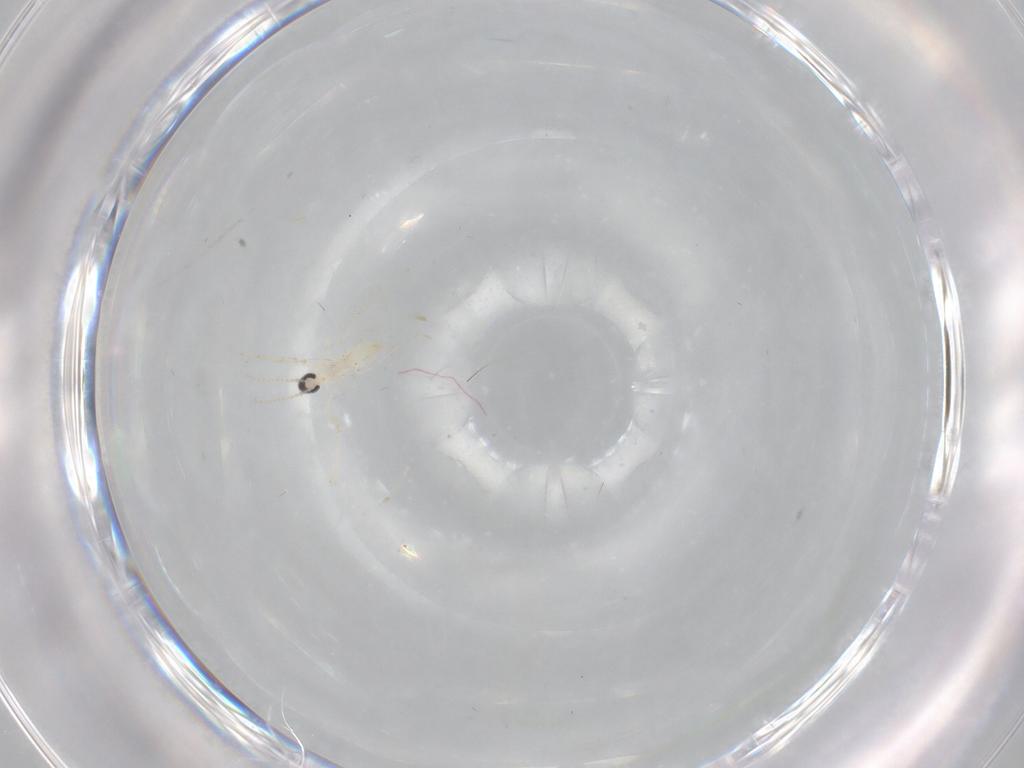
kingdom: Animalia
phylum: Arthropoda
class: Insecta
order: Diptera
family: Cecidomyiidae
